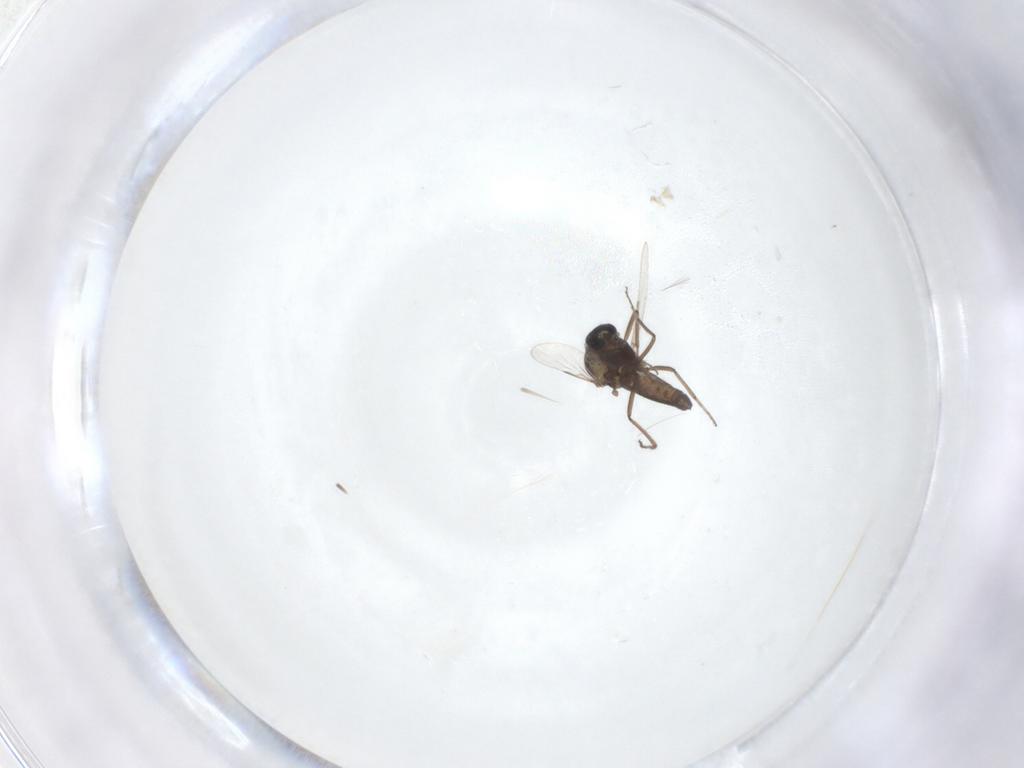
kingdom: Animalia
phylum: Arthropoda
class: Insecta
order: Diptera
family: Ceratopogonidae
